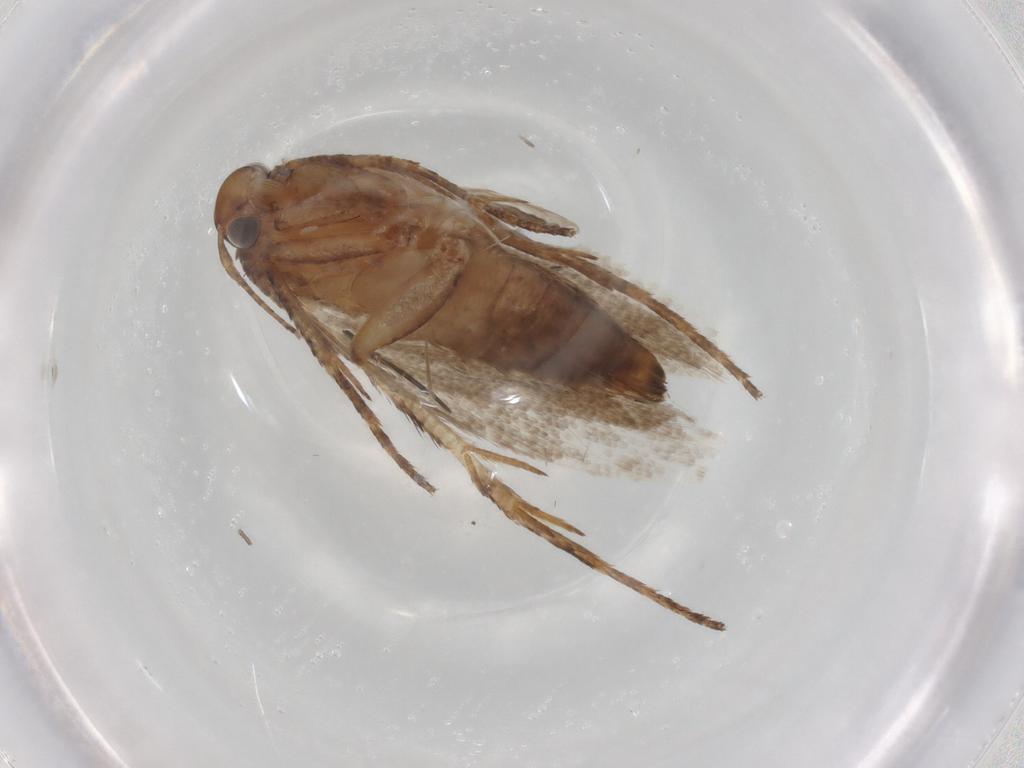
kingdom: Animalia
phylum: Arthropoda
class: Insecta
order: Lepidoptera
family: Gelechiidae
